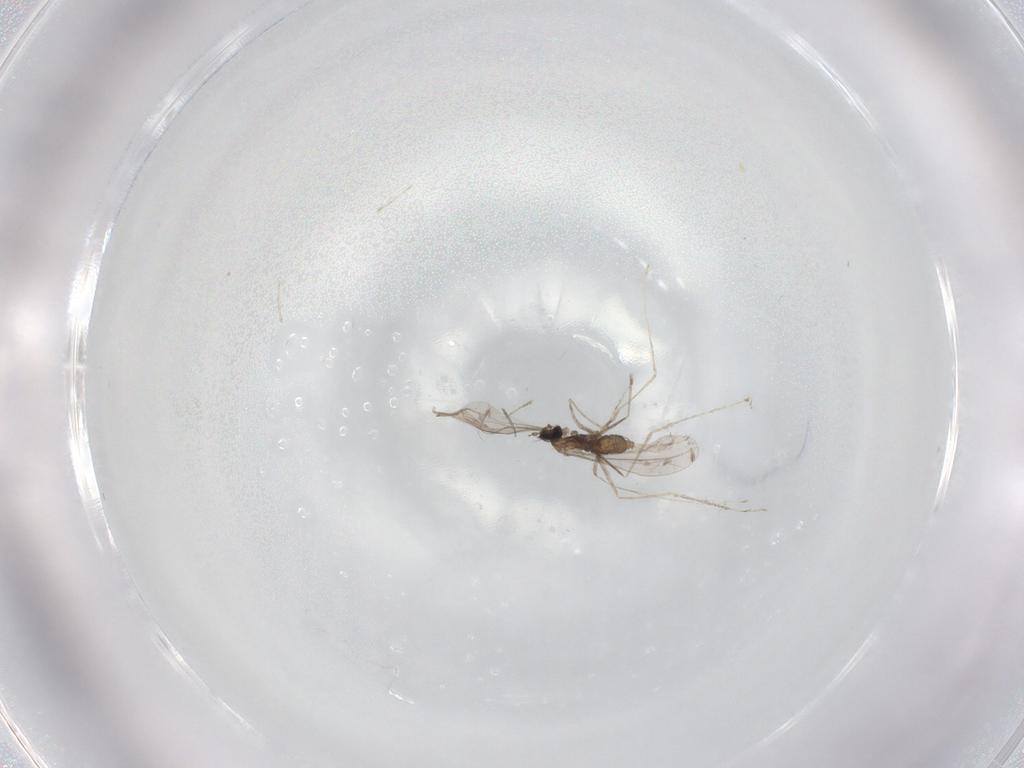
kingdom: Animalia
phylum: Arthropoda
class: Insecta
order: Diptera
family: Cecidomyiidae
